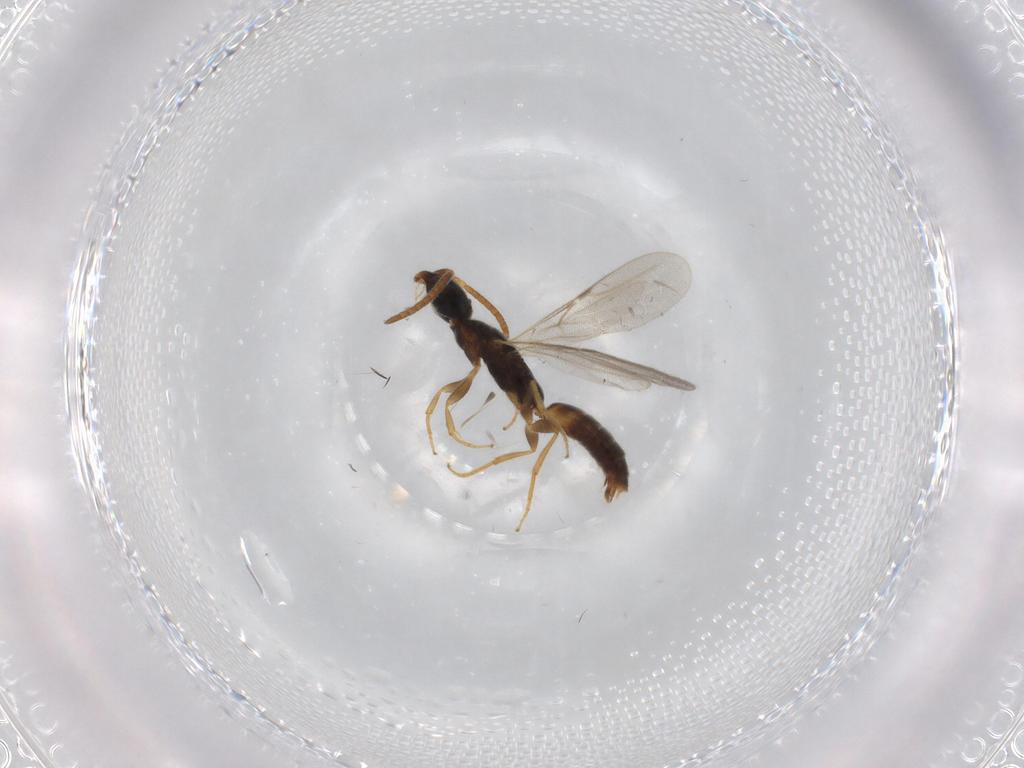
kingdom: Animalia
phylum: Arthropoda
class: Insecta
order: Hymenoptera
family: Bethylidae
